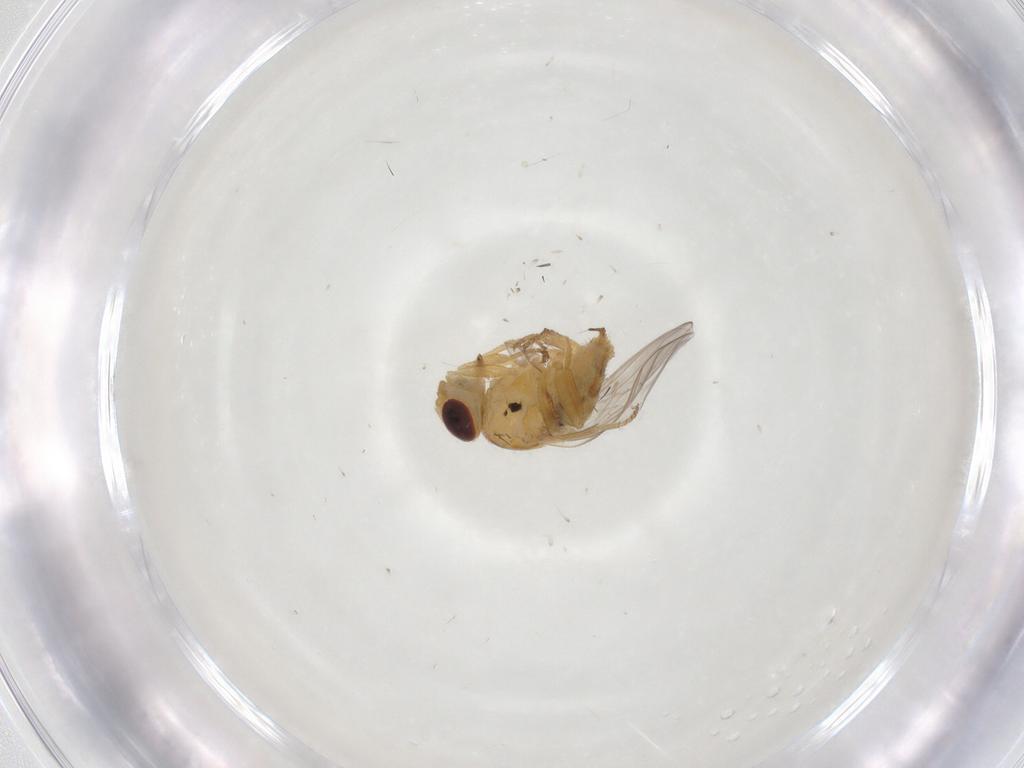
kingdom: Animalia
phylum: Arthropoda
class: Insecta
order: Diptera
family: Chloropidae
